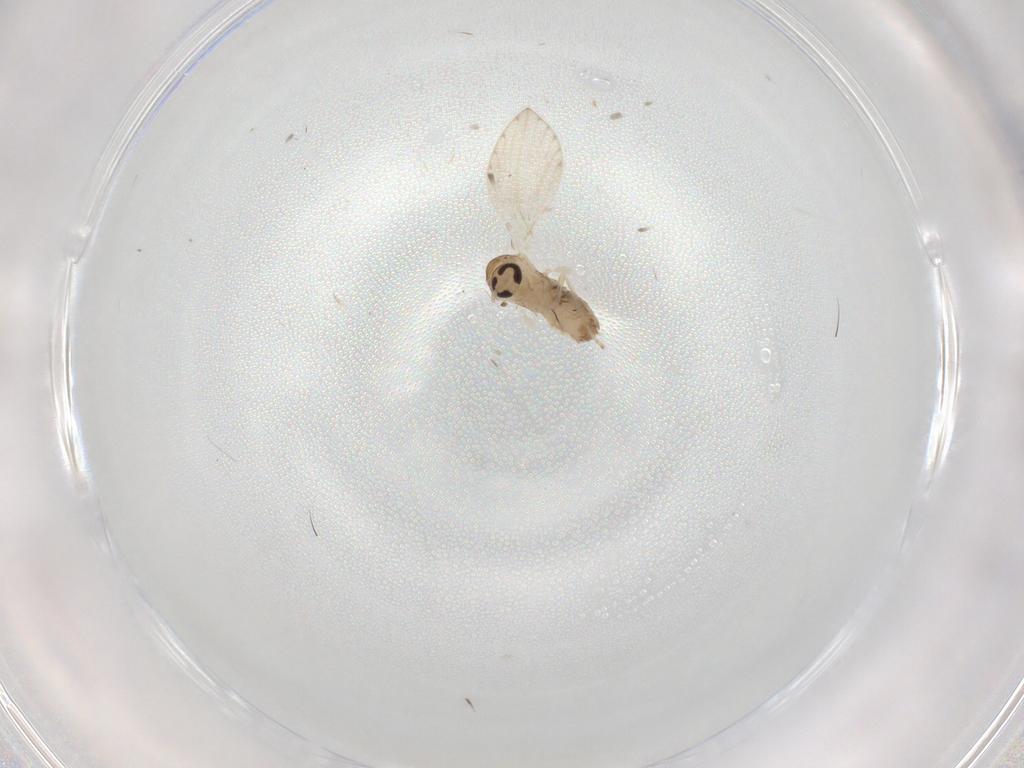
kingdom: Animalia
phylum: Arthropoda
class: Insecta
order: Diptera
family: Psychodidae
